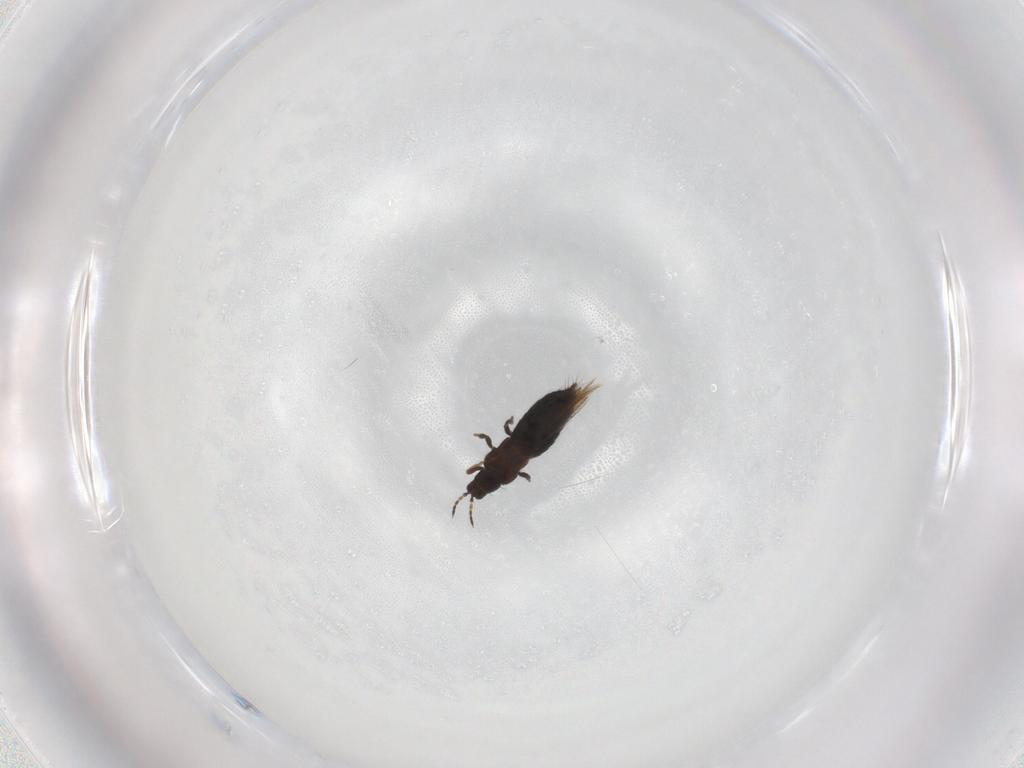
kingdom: Animalia
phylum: Arthropoda
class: Insecta
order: Thysanoptera
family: Thripidae
